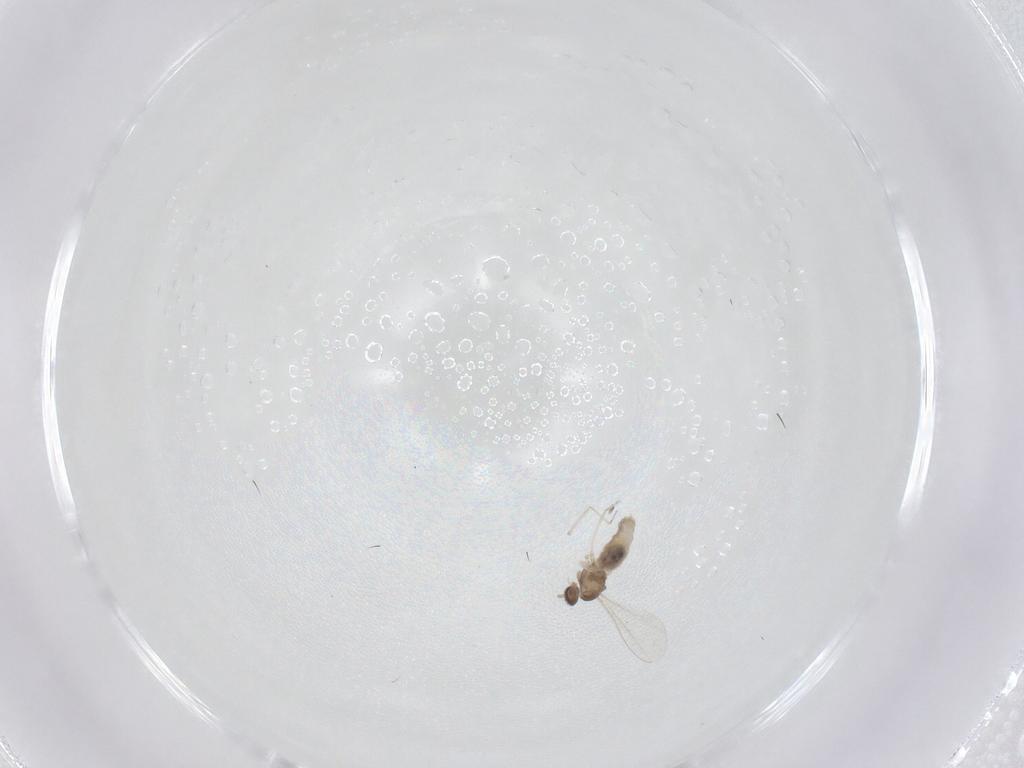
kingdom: Animalia
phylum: Arthropoda
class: Insecta
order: Diptera
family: Cecidomyiidae
